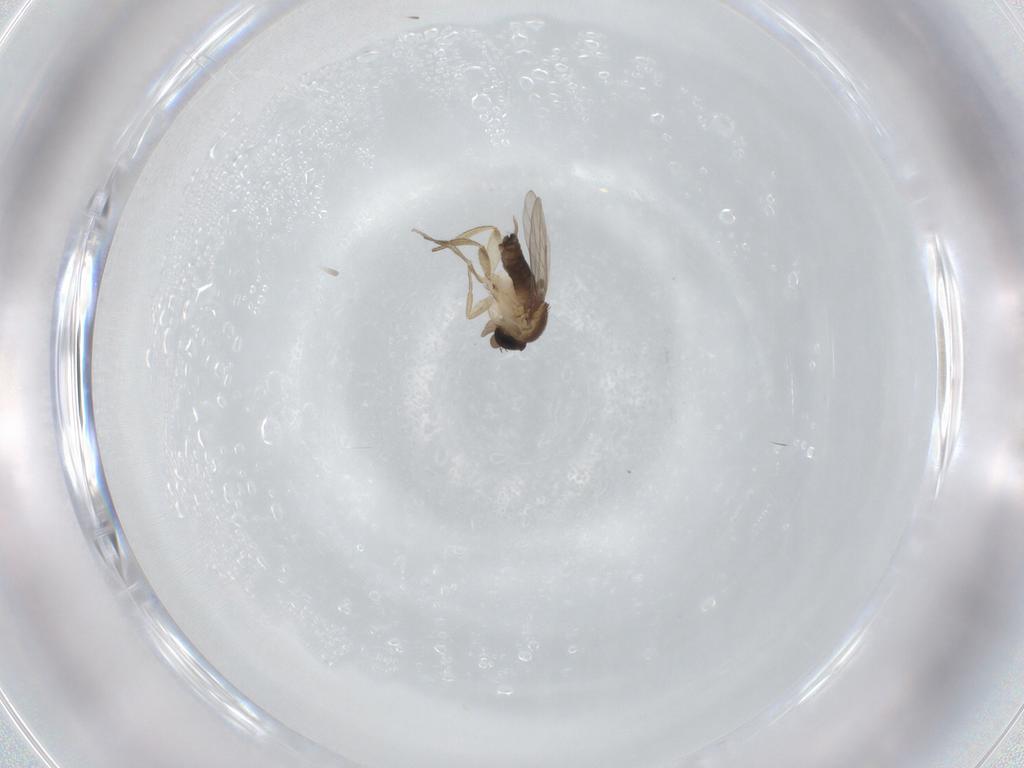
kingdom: Animalia
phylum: Arthropoda
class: Insecta
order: Diptera
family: Phoridae
